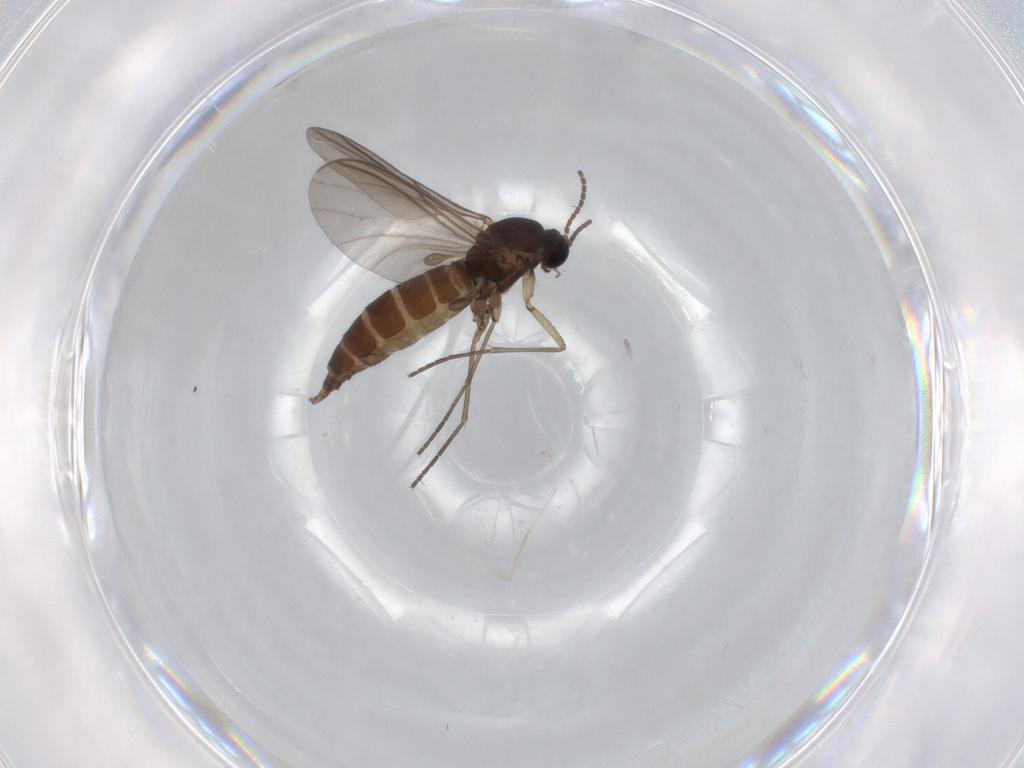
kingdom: Animalia
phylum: Arthropoda
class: Insecta
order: Diptera
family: Sciaridae
